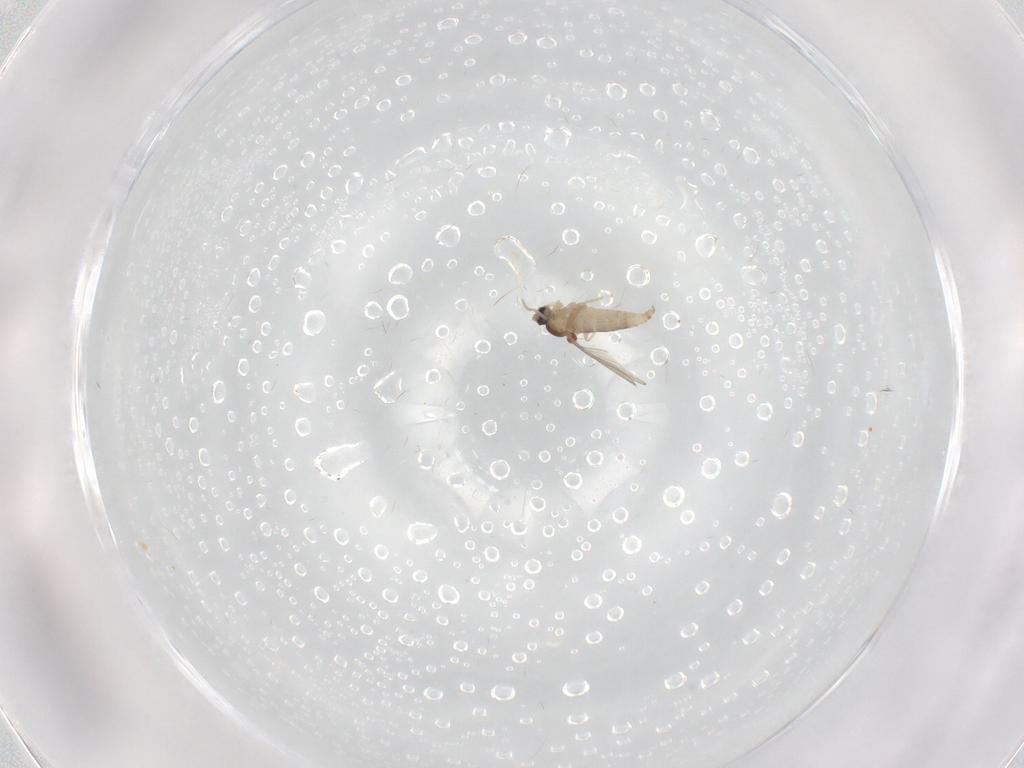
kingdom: Animalia
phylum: Arthropoda
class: Insecta
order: Diptera
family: Cecidomyiidae
